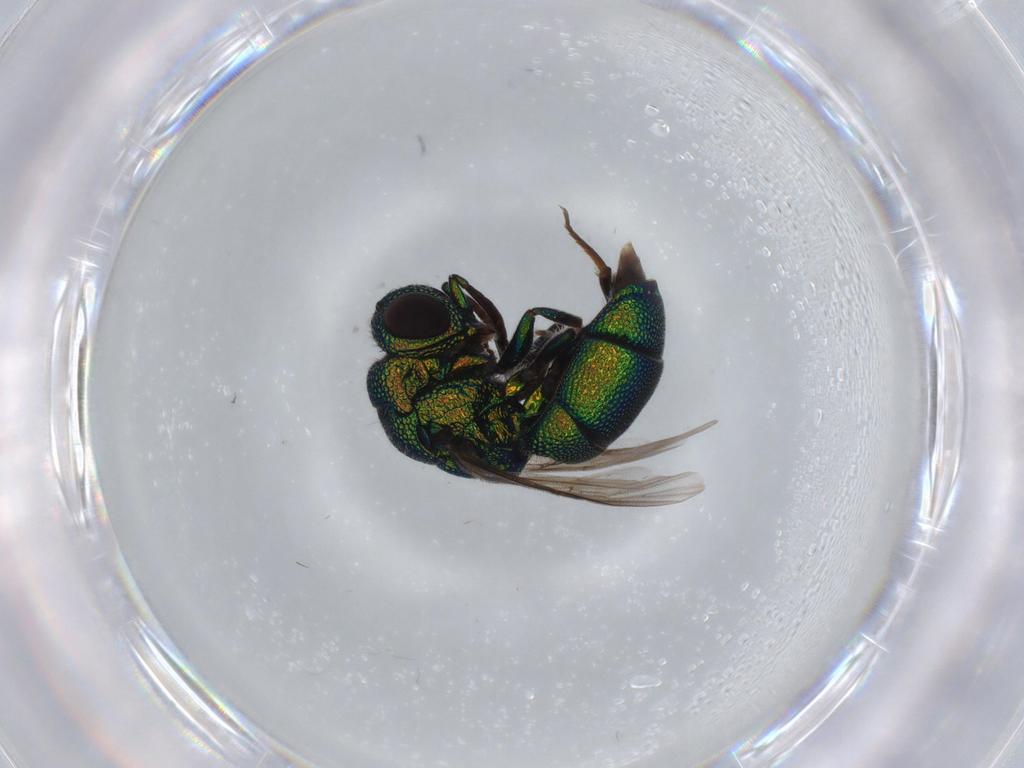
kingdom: Animalia
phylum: Arthropoda
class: Insecta
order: Hymenoptera
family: Chrysididae
